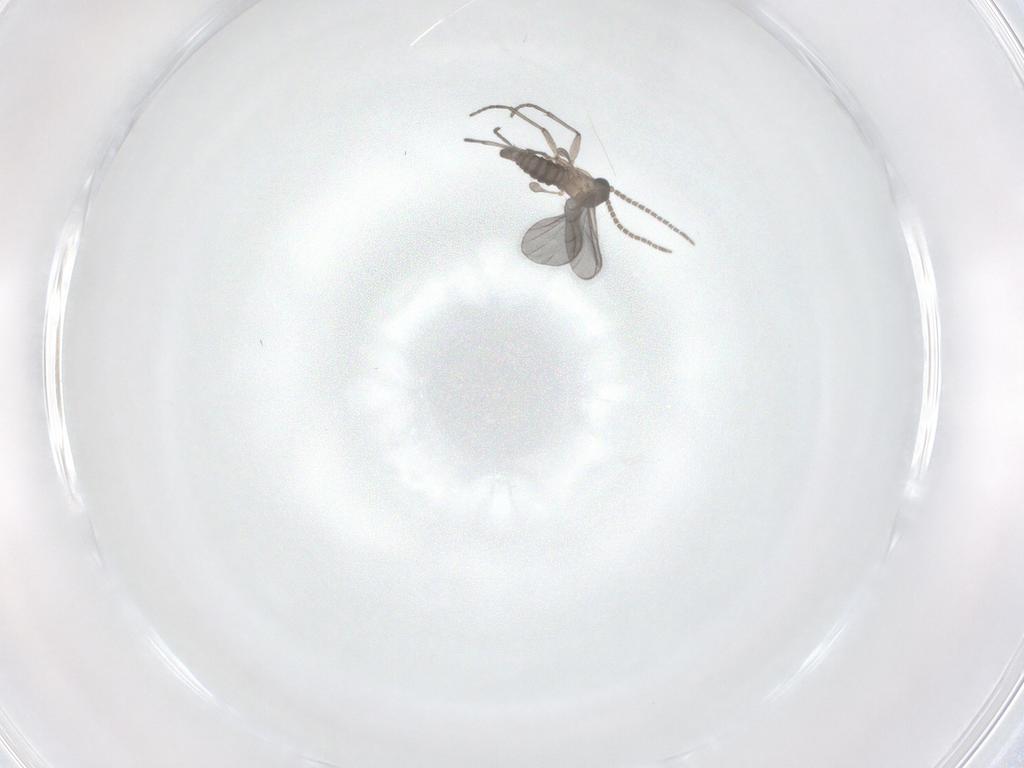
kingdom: Animalia
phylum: Arthropoda
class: Insecta
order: Diptera
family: Sciaridae
